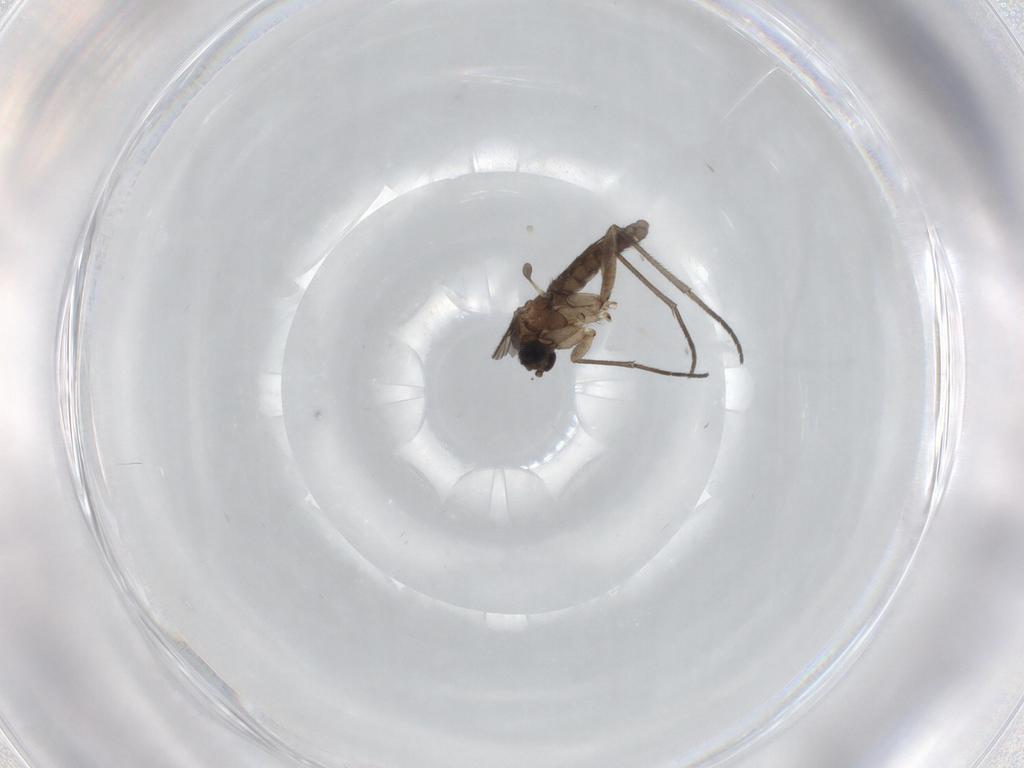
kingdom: Animalia
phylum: Arthropoda
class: Insecta
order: Diptera
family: Sciaridae
